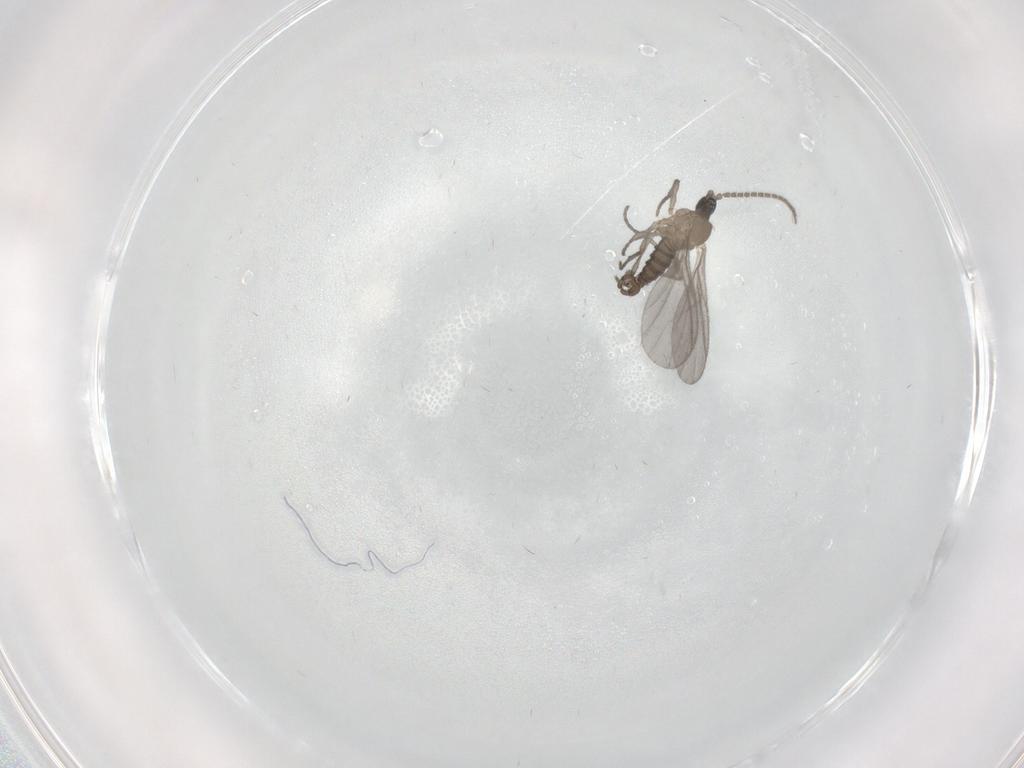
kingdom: Animalia
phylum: Arthropoda
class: Insecta
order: Diptera
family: Sciaridae
